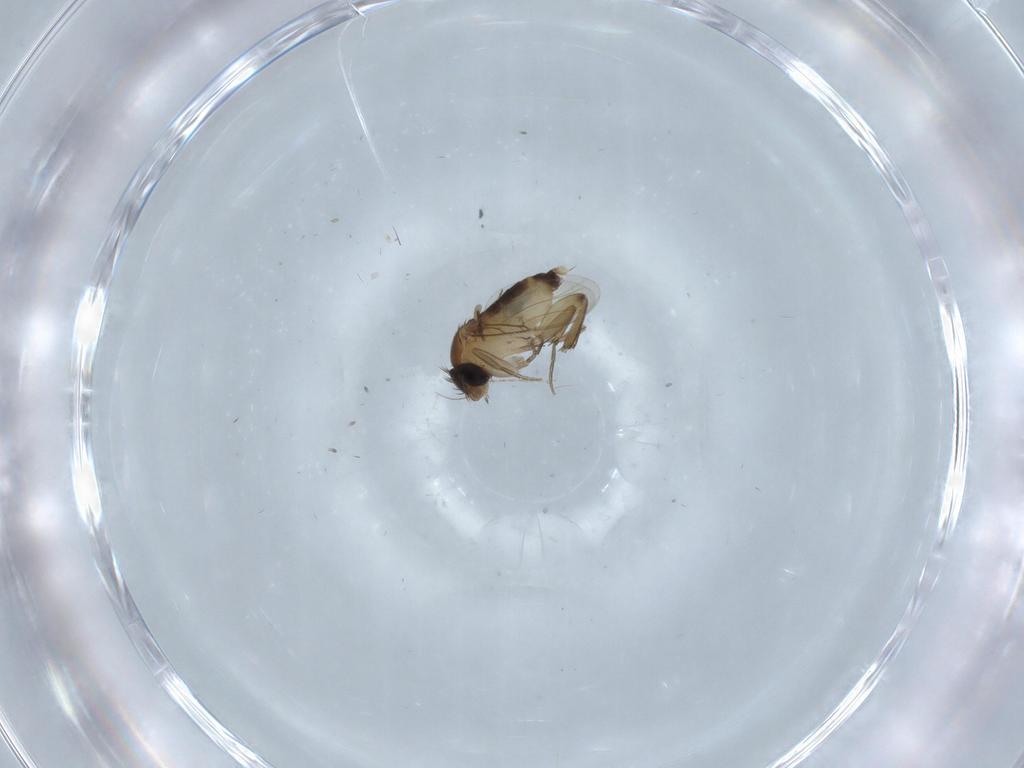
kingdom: Animalia
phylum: Arthropoda
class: Insecta
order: Diptera
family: Phoridae
